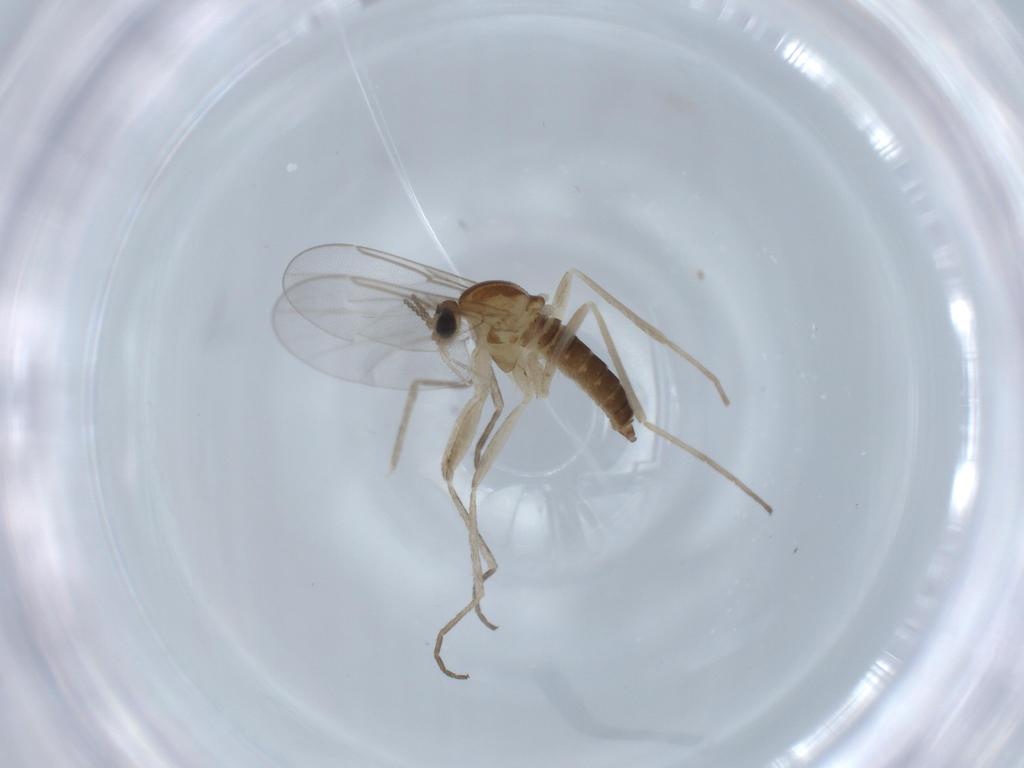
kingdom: Animalia
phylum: Arthropoda
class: Insecta
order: Diptera
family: Cecidomyiidae
